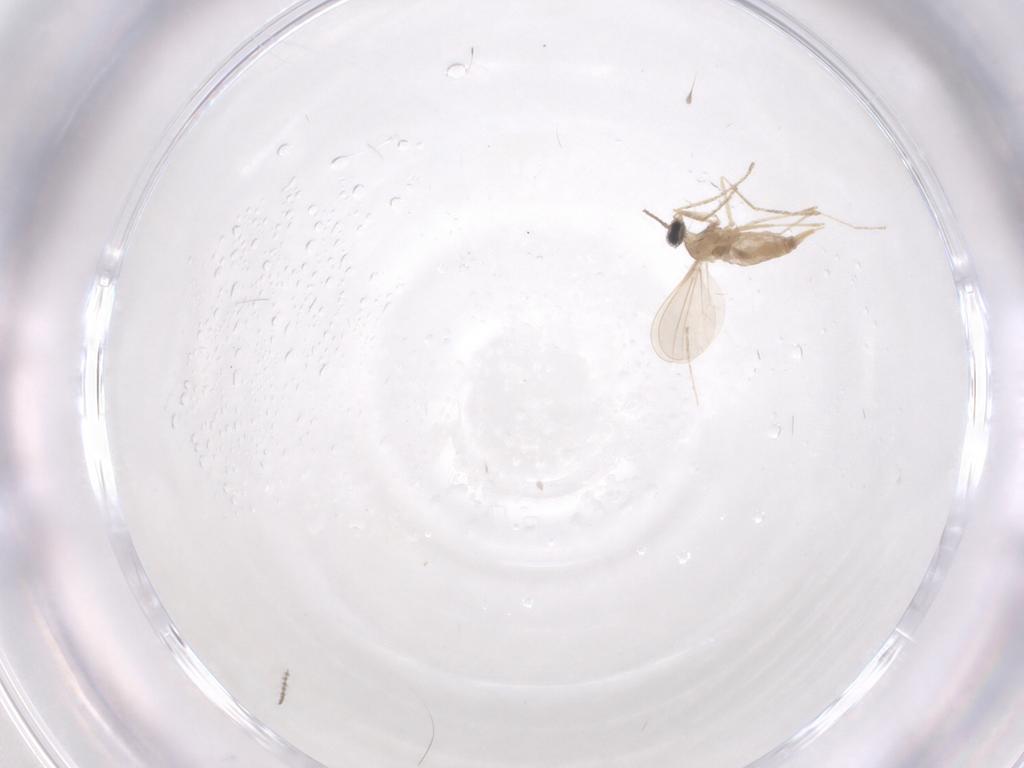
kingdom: Animalia
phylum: Arthropoda
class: Insecta
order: Diptera
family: Cecidomyiidae
